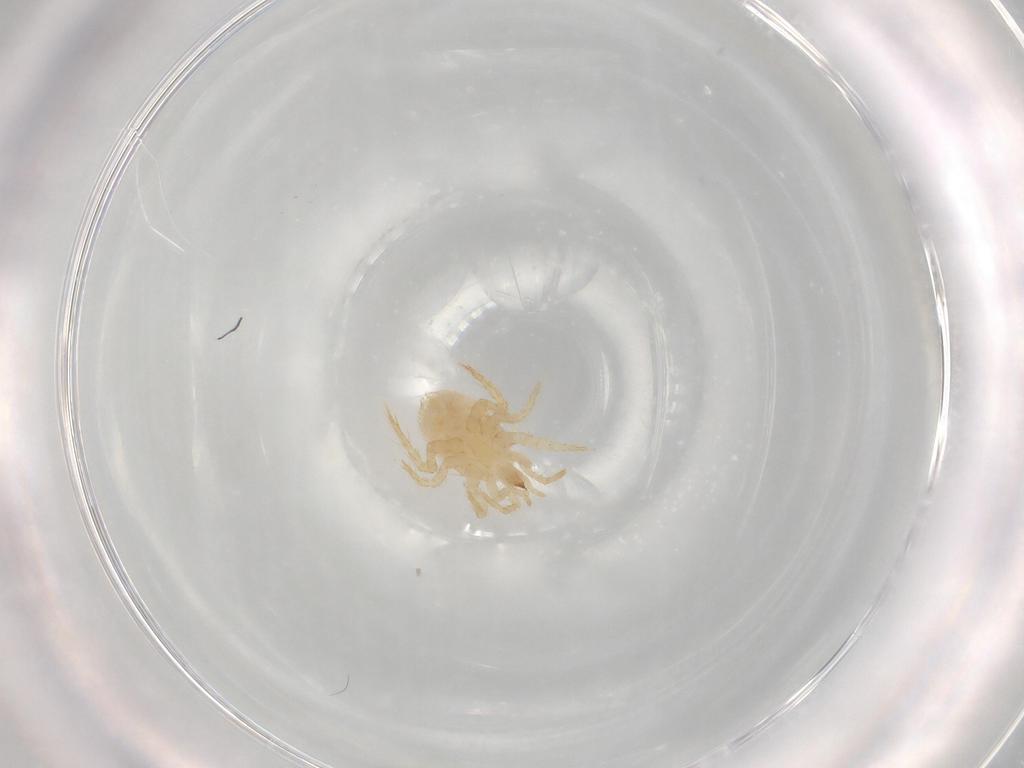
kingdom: Animalia
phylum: Arthropoda
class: Arachnida
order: Mesostigmata
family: Parasitidae
